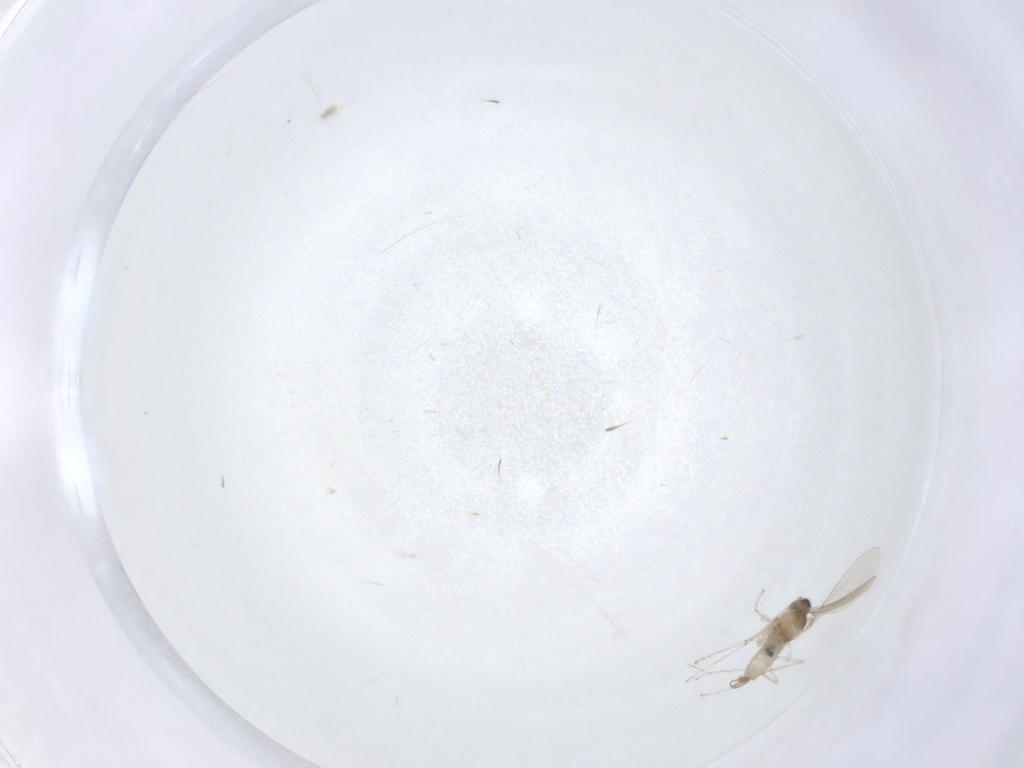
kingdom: Animalia
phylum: Arthropoda
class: Insecta
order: Diptera
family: Cecidomyiidae
